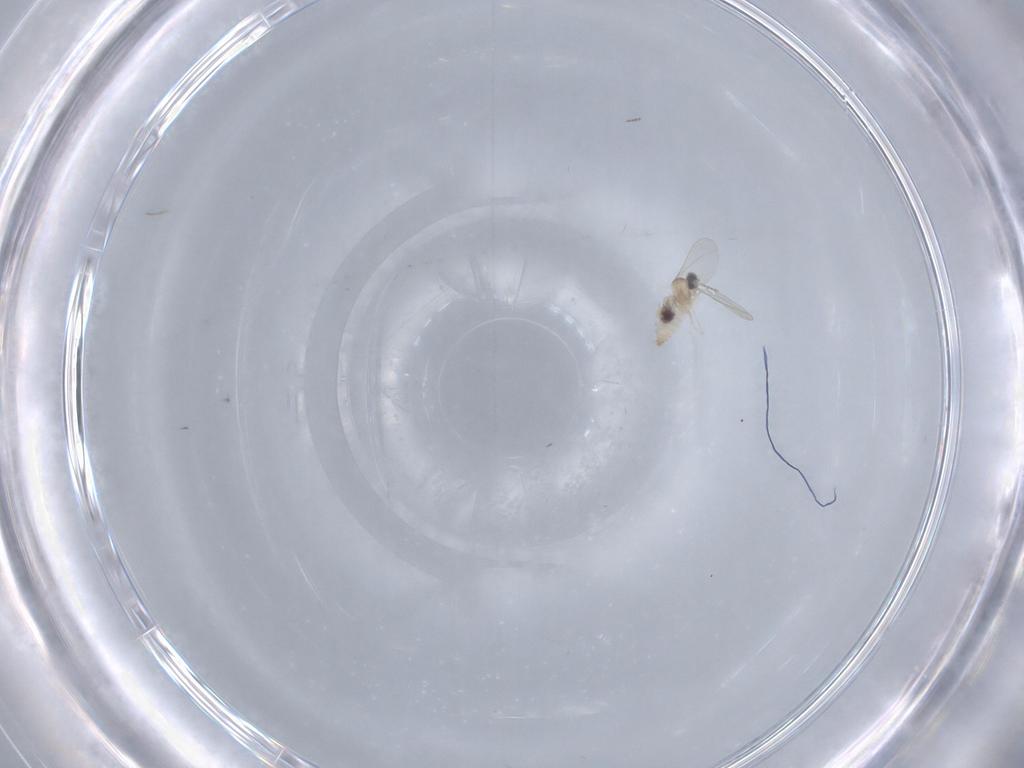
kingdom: Animalia
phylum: Arthropoda
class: Insecta
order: Diptera
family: Cecidomyiidae
